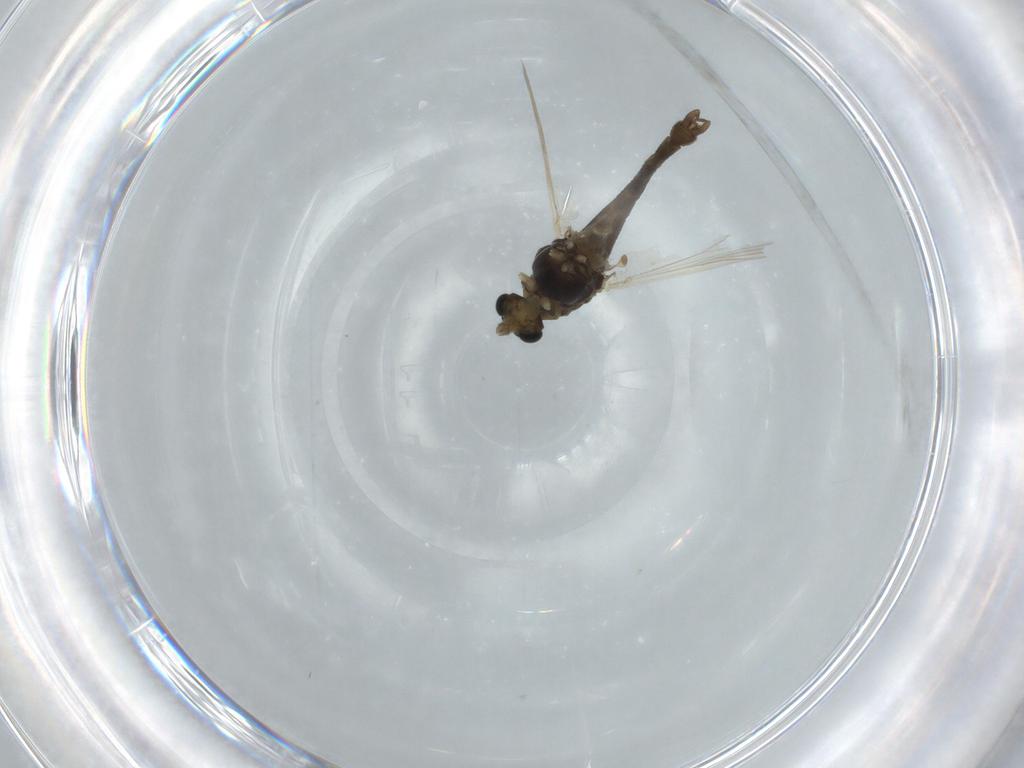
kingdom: Animalia
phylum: Arthropoda
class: Insecta
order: Diptera
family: Chironomidae
